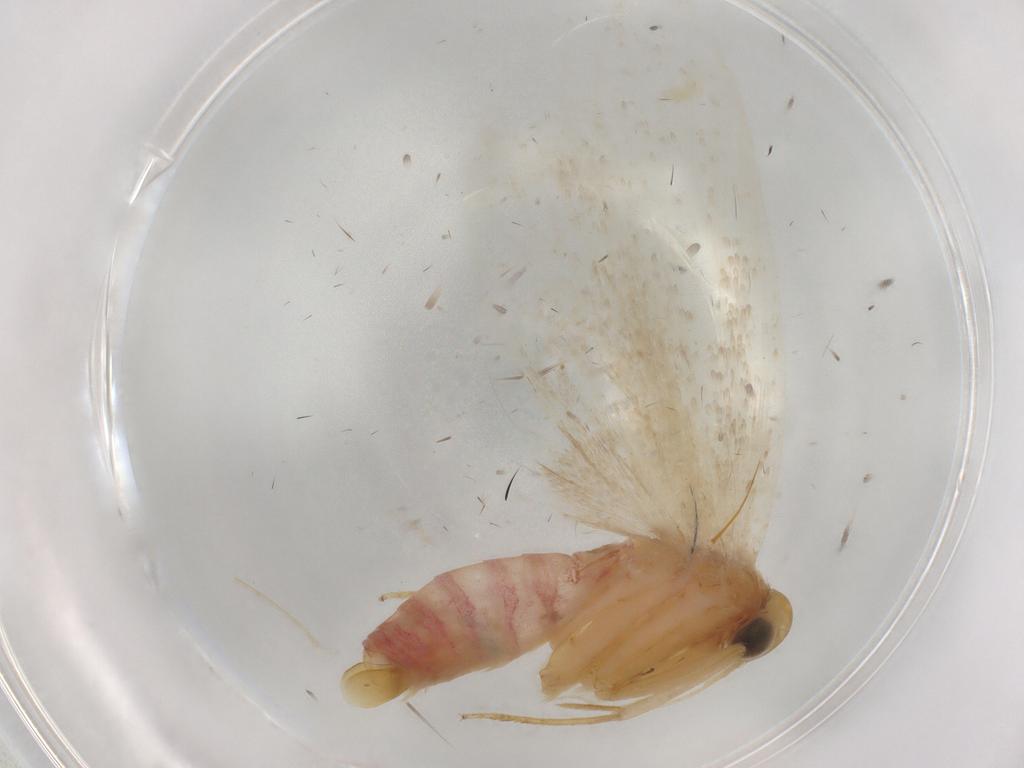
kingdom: Animalia
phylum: Arthropoda
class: Insecta
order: Lepidoptera
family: Autostichidae
